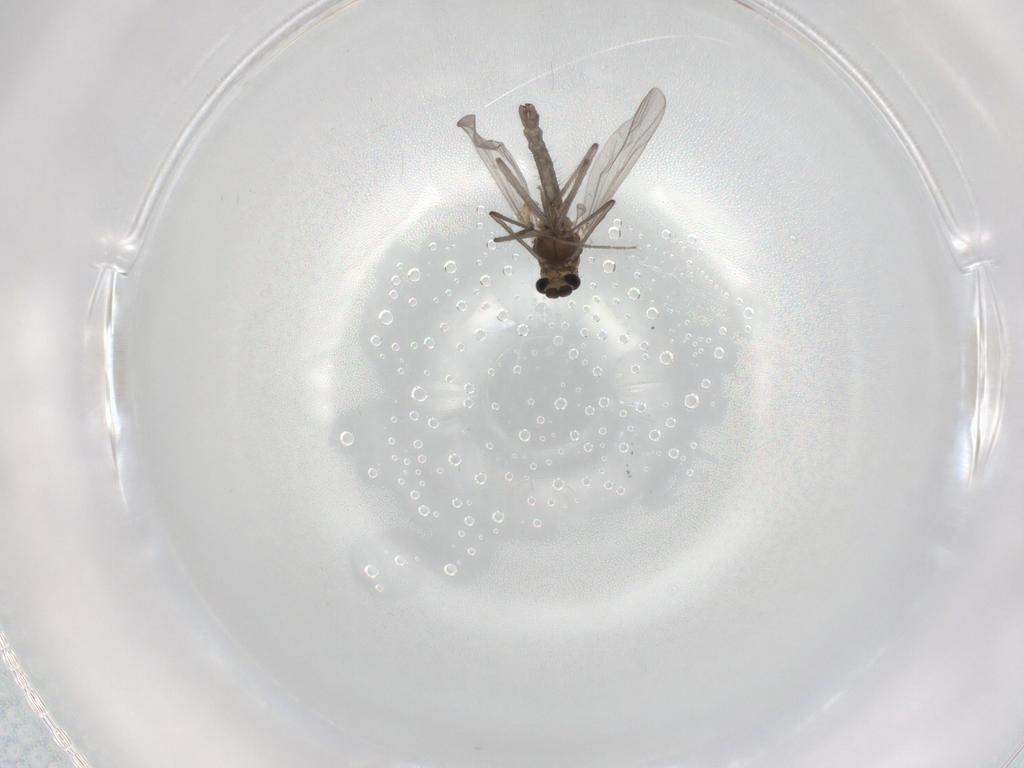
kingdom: Animalia
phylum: Arthropoda
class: Insecta
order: Diptera
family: Chironomidae
